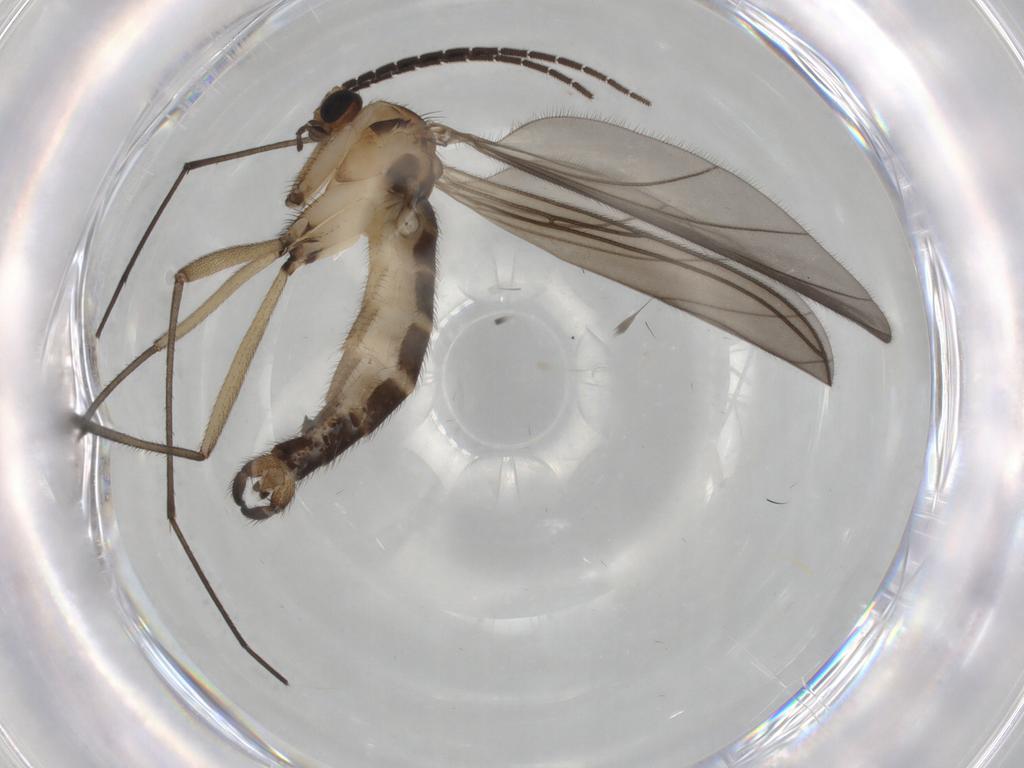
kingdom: Animalia
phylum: Arthropoda
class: Insecta
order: Diptera
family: Sciaridae
